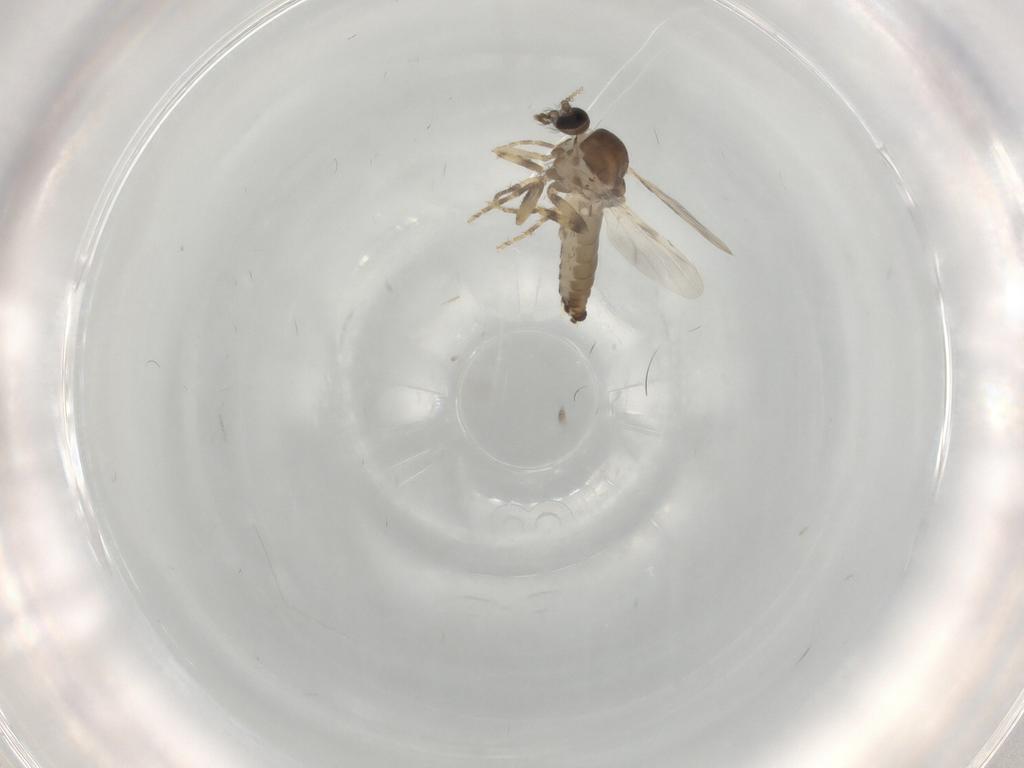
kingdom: Animalia
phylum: Arthropoda
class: Insecta
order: Diptera
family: Ceratopogonidae
